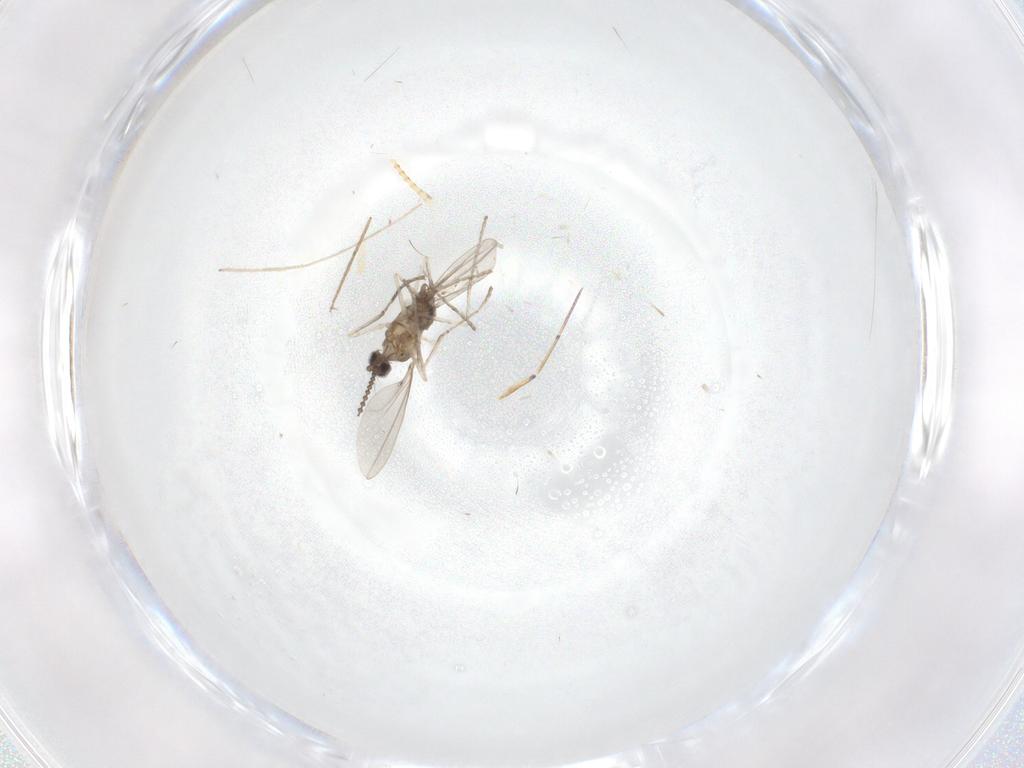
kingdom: Animalia
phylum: Arthropoda
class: Insecta
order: Diptera
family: Cecidomyiidae
